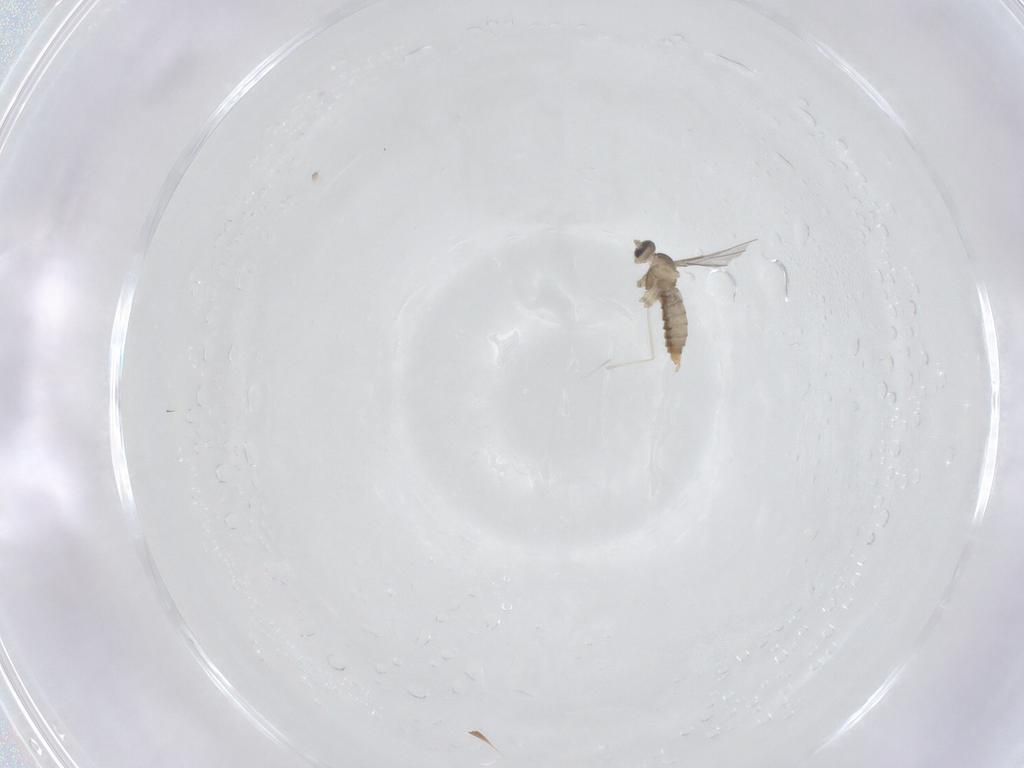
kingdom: Animalia
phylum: Arthropoda
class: Insecta
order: Diptera
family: Cecidomyiidae
